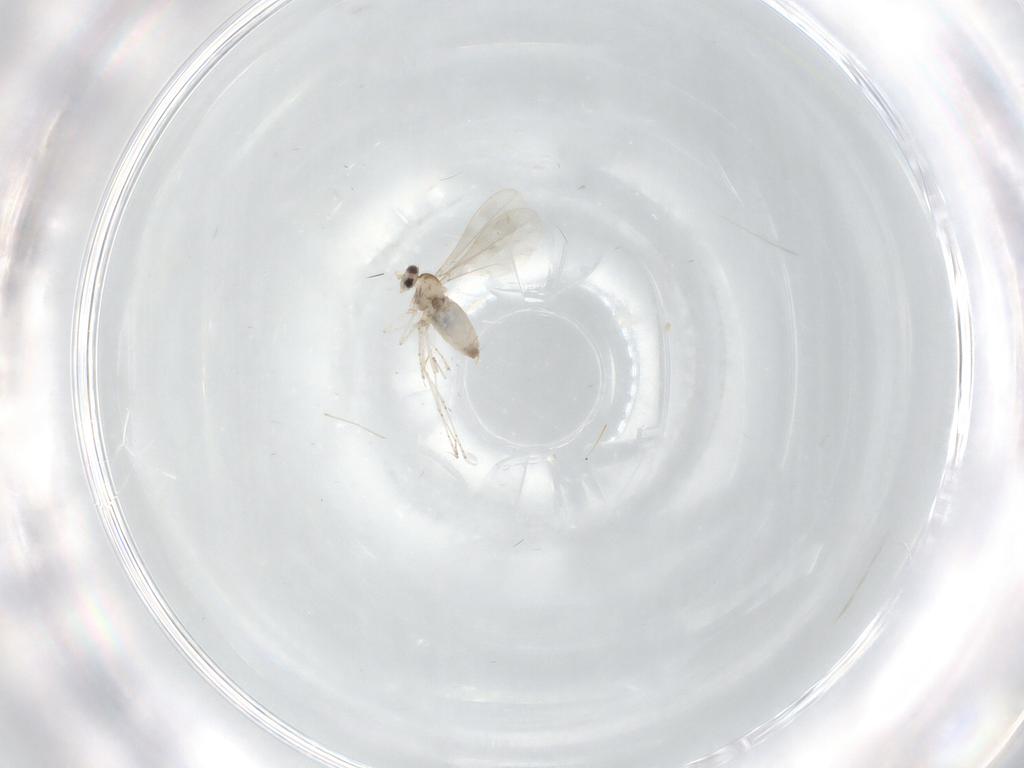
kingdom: Animalia
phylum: Arthropoda
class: Insecta
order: Diptera
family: Cecidomyiidae
